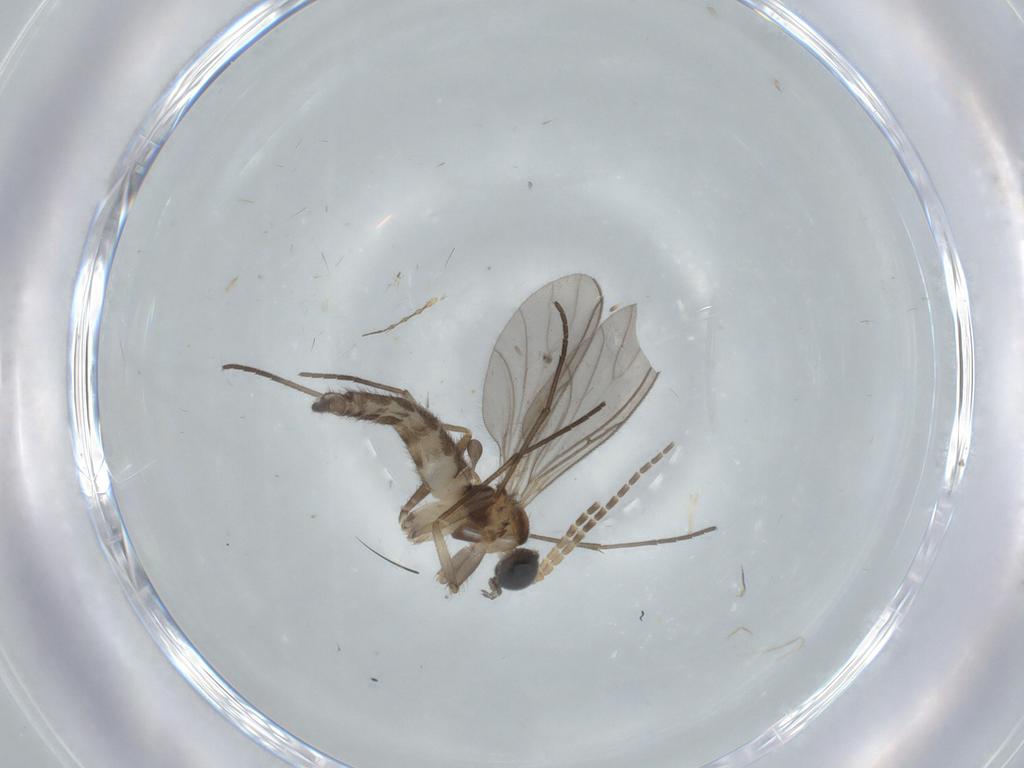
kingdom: Animalia
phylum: Arthropoda
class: Insecta
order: Diptera
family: Sciaridae
